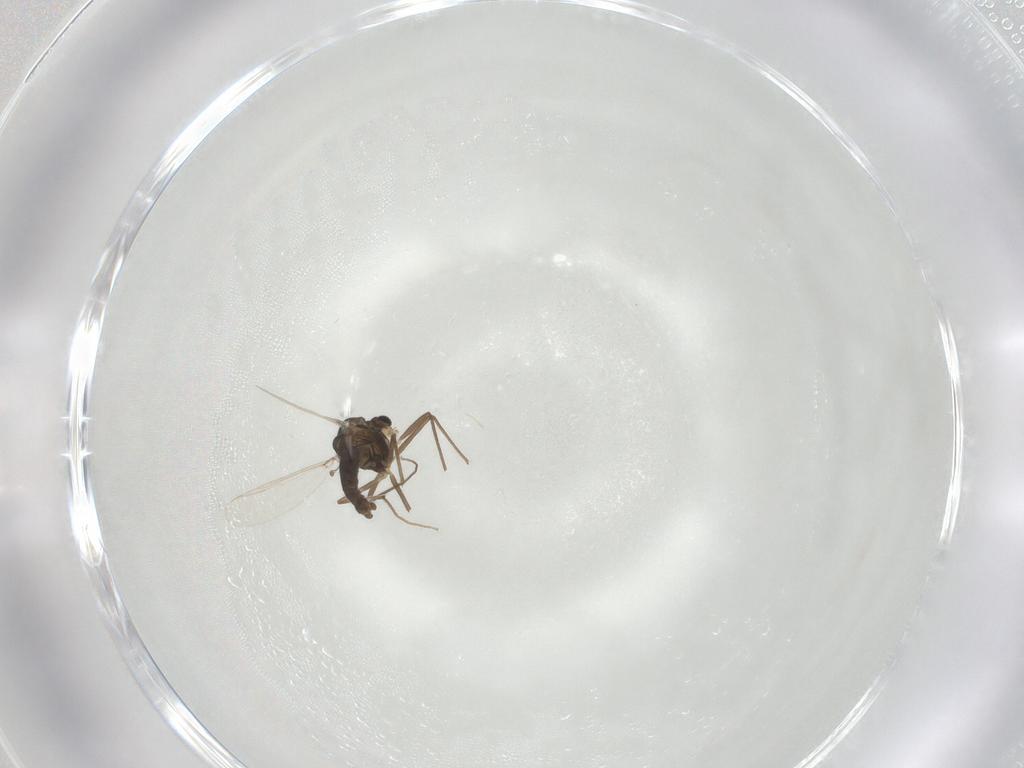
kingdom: Animalia
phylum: Arthropoda
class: Insecta
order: Diptera
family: Chironomidae
